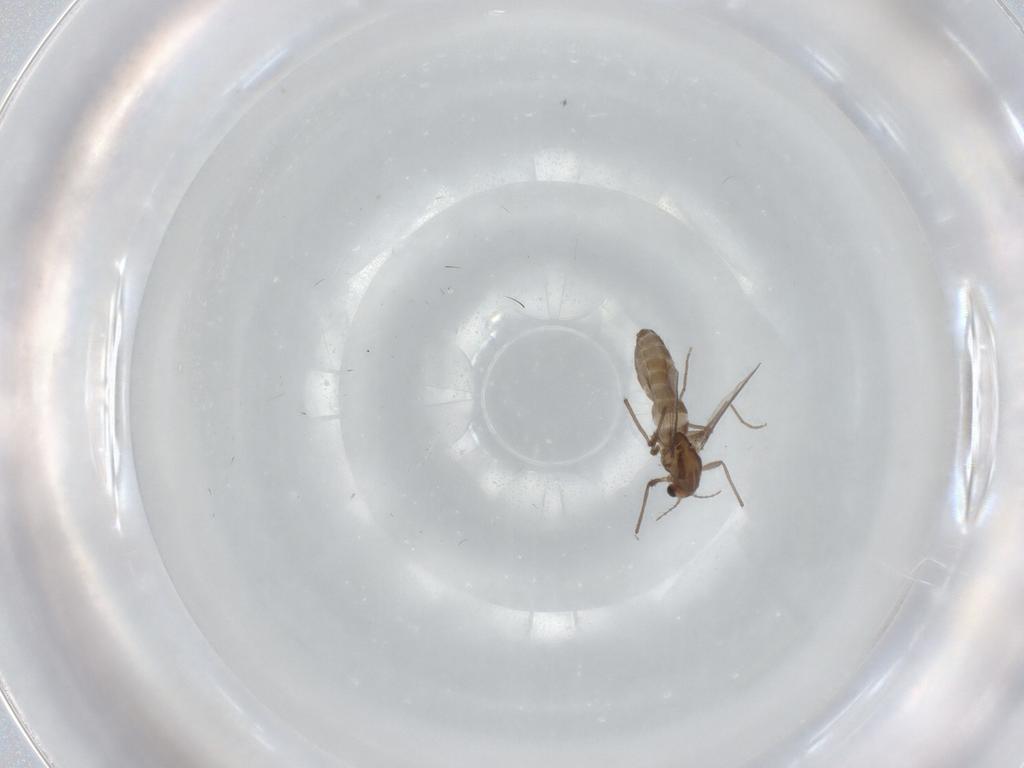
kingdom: Animalia
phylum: Arthropoda
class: Insecta
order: Diptera
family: Chironomidae
